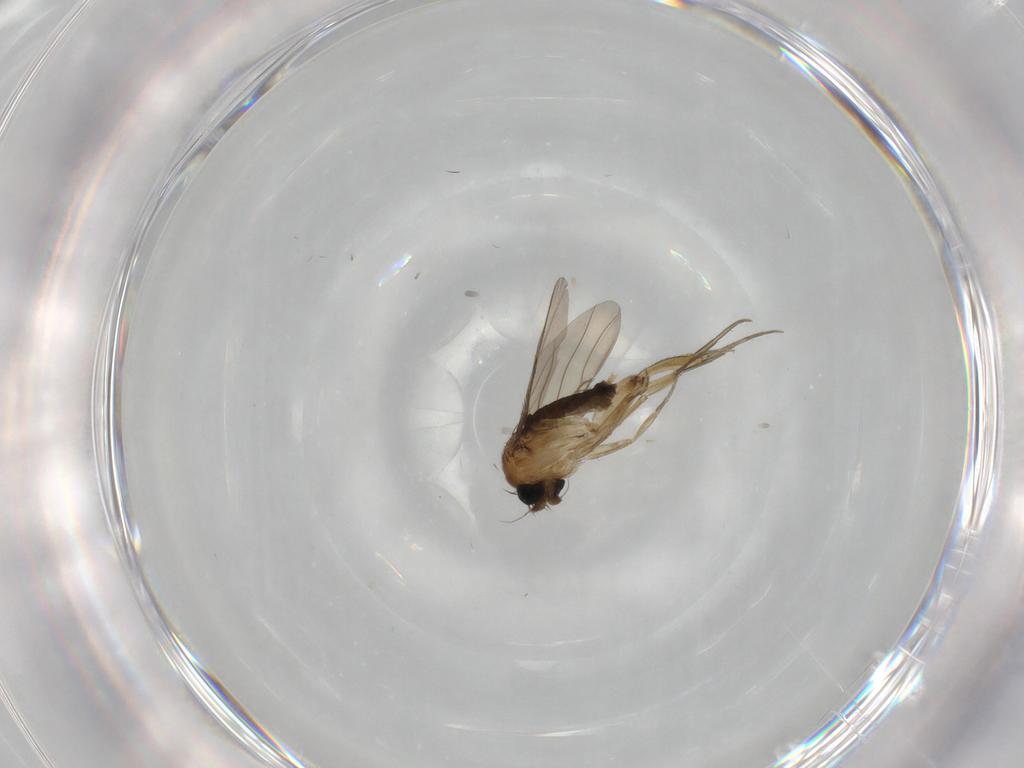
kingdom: Animalia
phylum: Arthropoda
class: Insecta
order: Diptera
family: Phoridae
